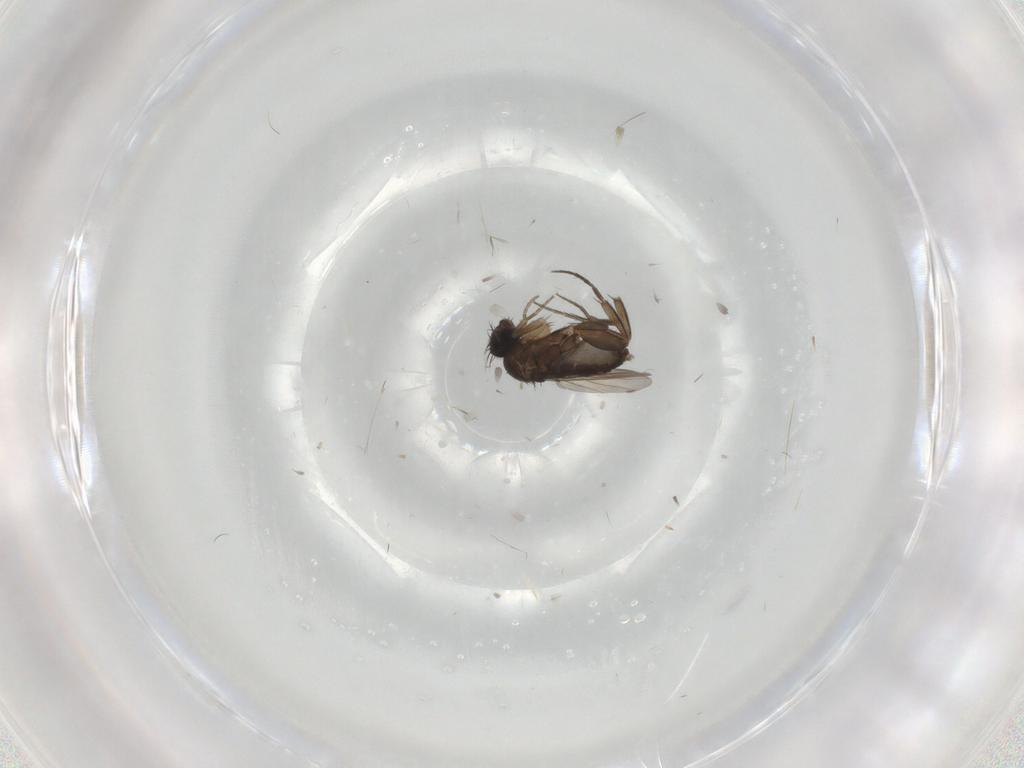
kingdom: Animalia
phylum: Arthropoda
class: Insecta
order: Diptera
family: Phoridae
